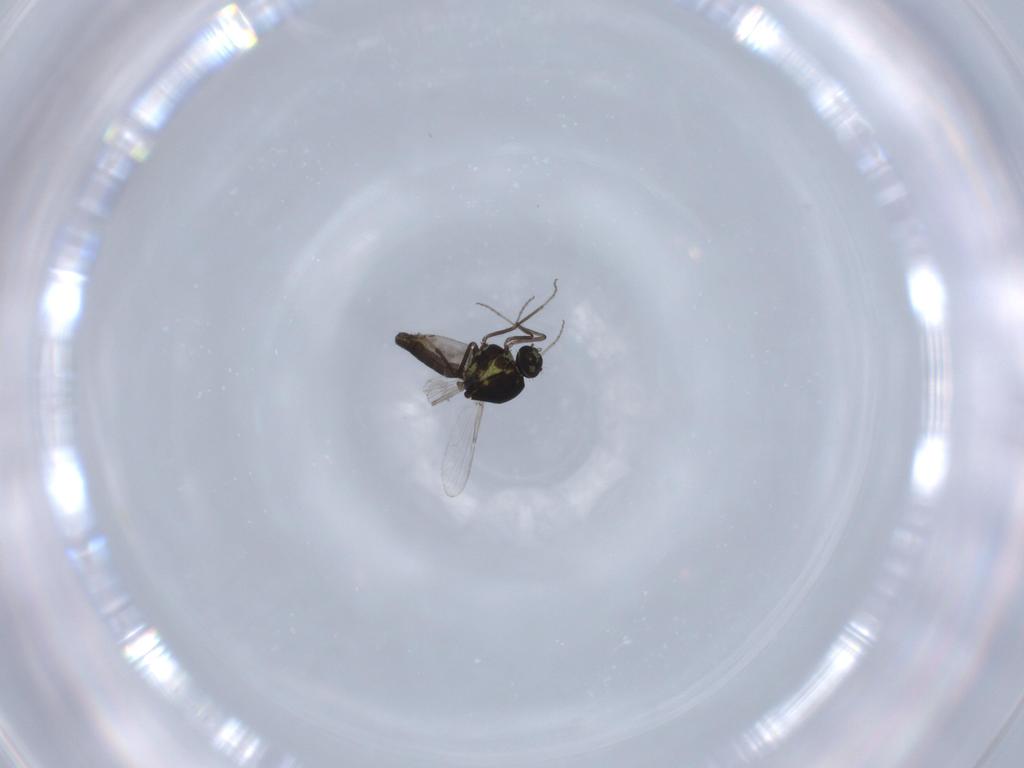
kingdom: Animalia
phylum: Arthropoda
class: Insecta
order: Diptera
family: Ceratopogonidae
